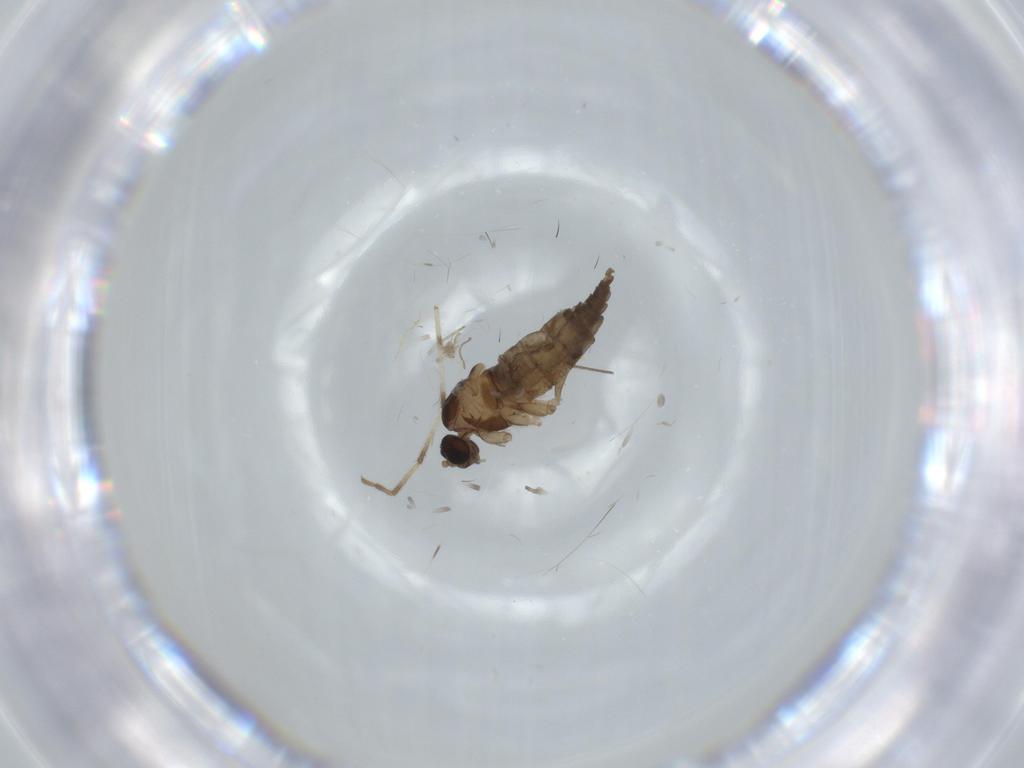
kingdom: Animalia
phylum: Arthropoda
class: Insecta
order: Diptera
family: Cecidomyiidae
